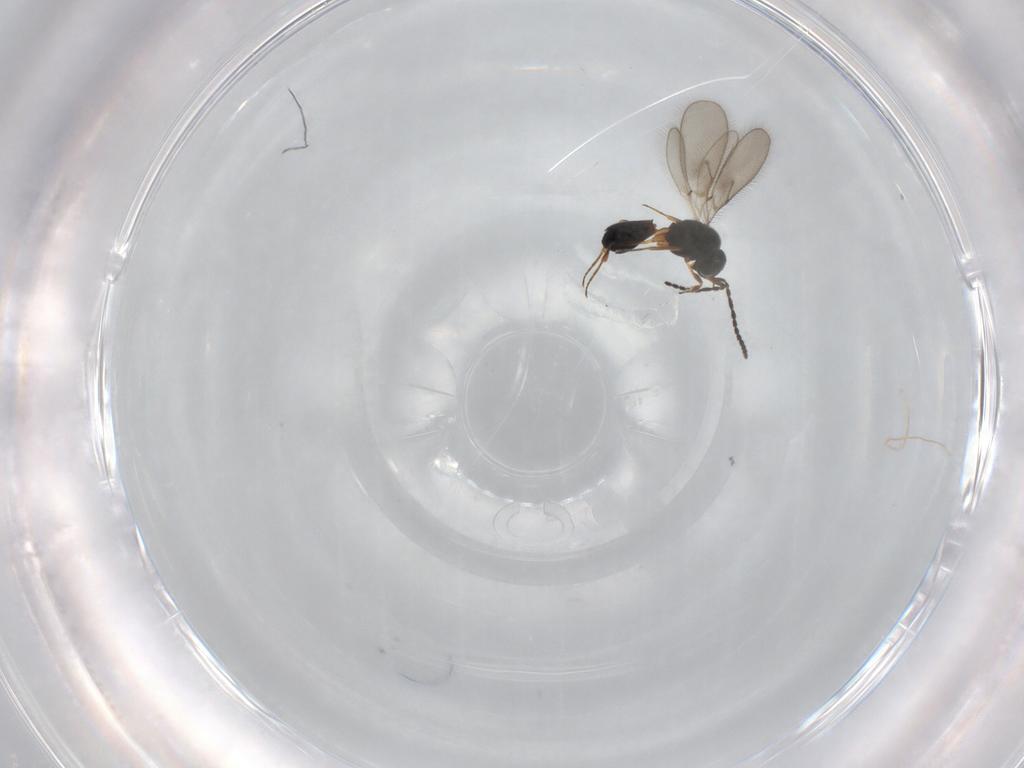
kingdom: Animalia
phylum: Arthropoda
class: Insecta
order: Hymenoptera
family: Scelionidae
